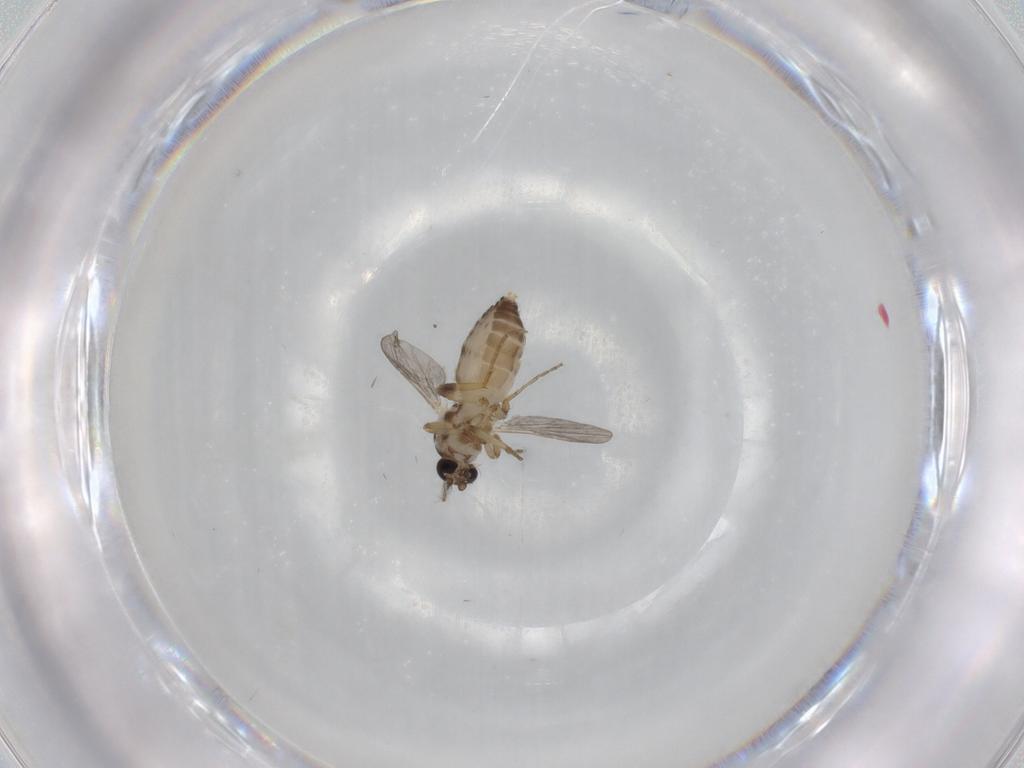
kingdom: Animalia
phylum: Arthropoda
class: Insecta
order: Diptera
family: Ceratopogonidae
